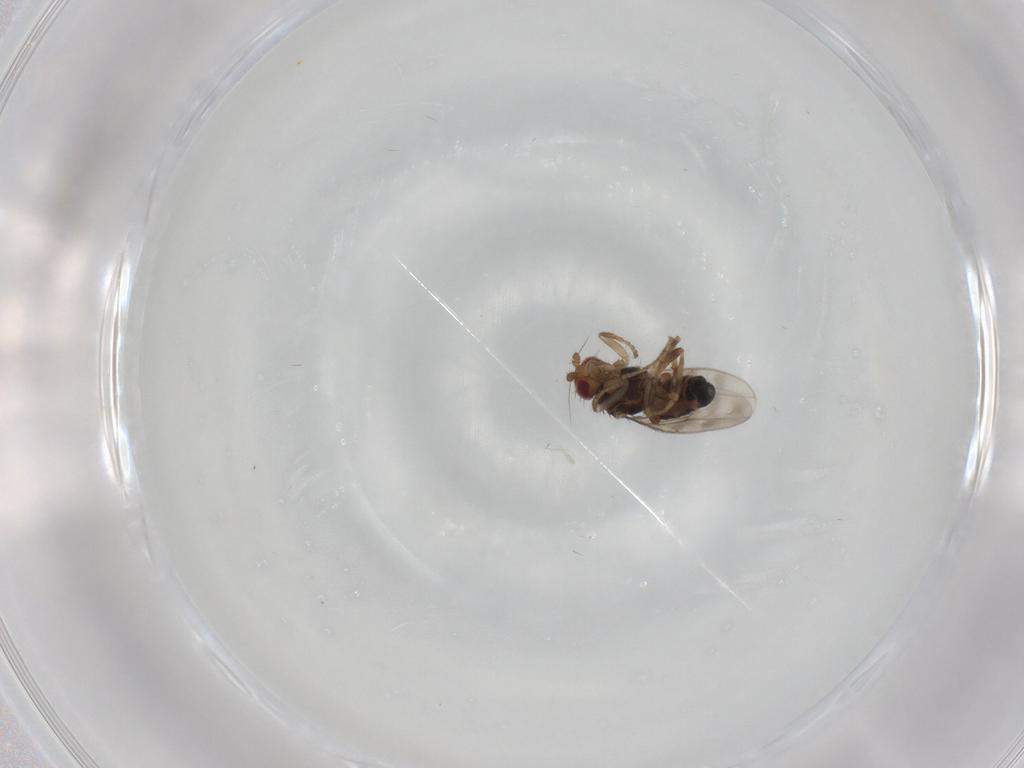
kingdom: Animalia
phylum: Arthropoda
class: Insecta
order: Diptera
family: Sphaeroceridae
